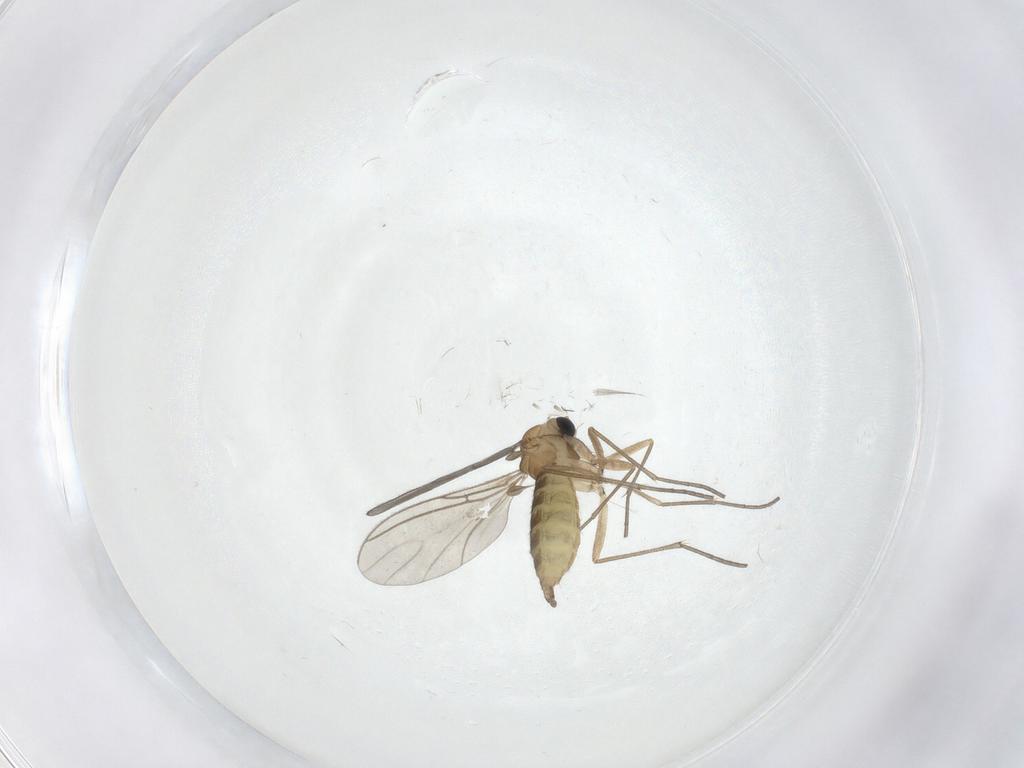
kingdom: Animalia
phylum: Arthropoda
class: Insecta
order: Diptera
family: Sciaridae
